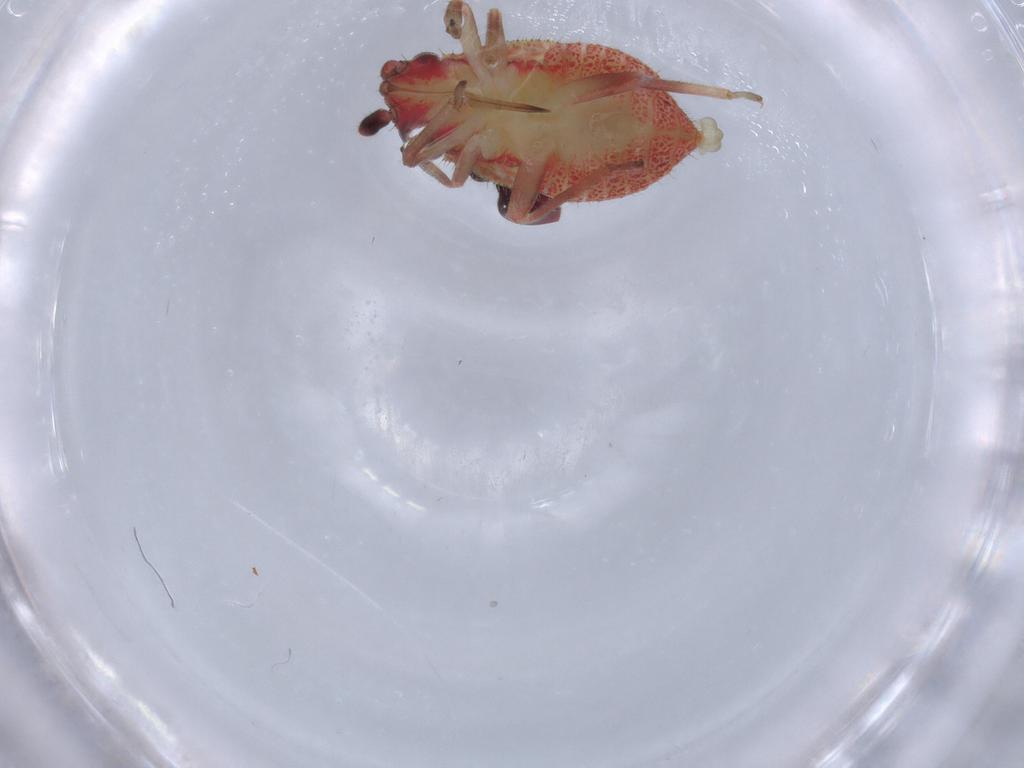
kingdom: Animalia
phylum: Arthropoda
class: Insecta
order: Hemiptera
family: Miridae
